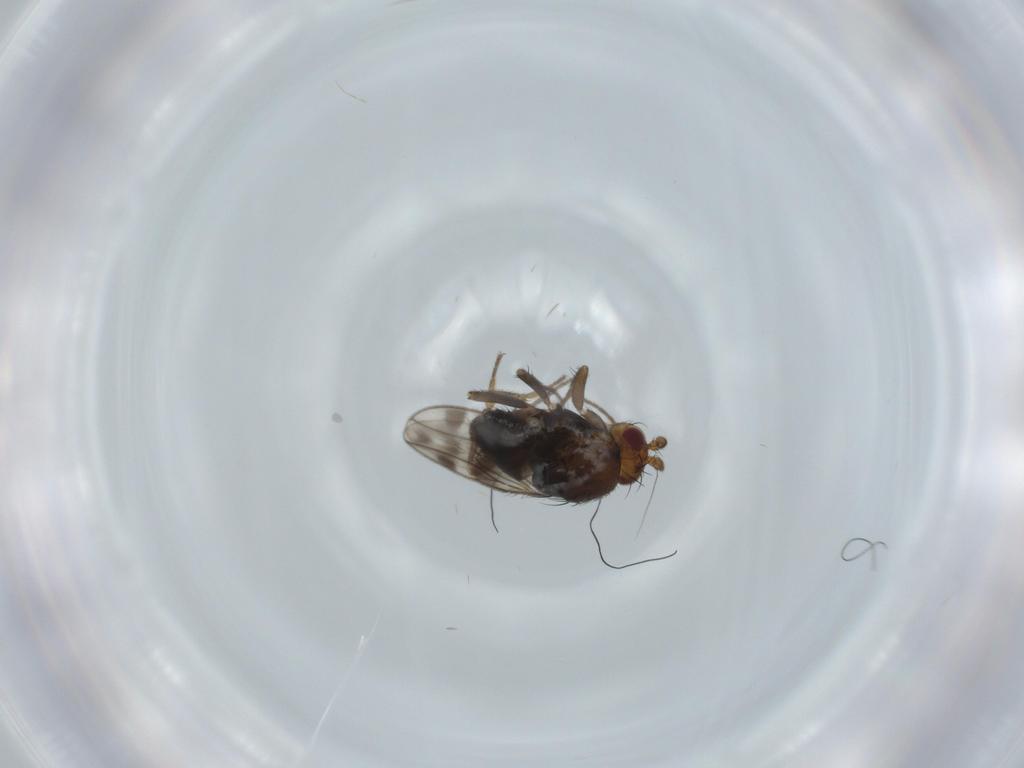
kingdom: Animalia
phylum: Arthropoda
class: Insecta
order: Diptera
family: Sphaeroceridae
